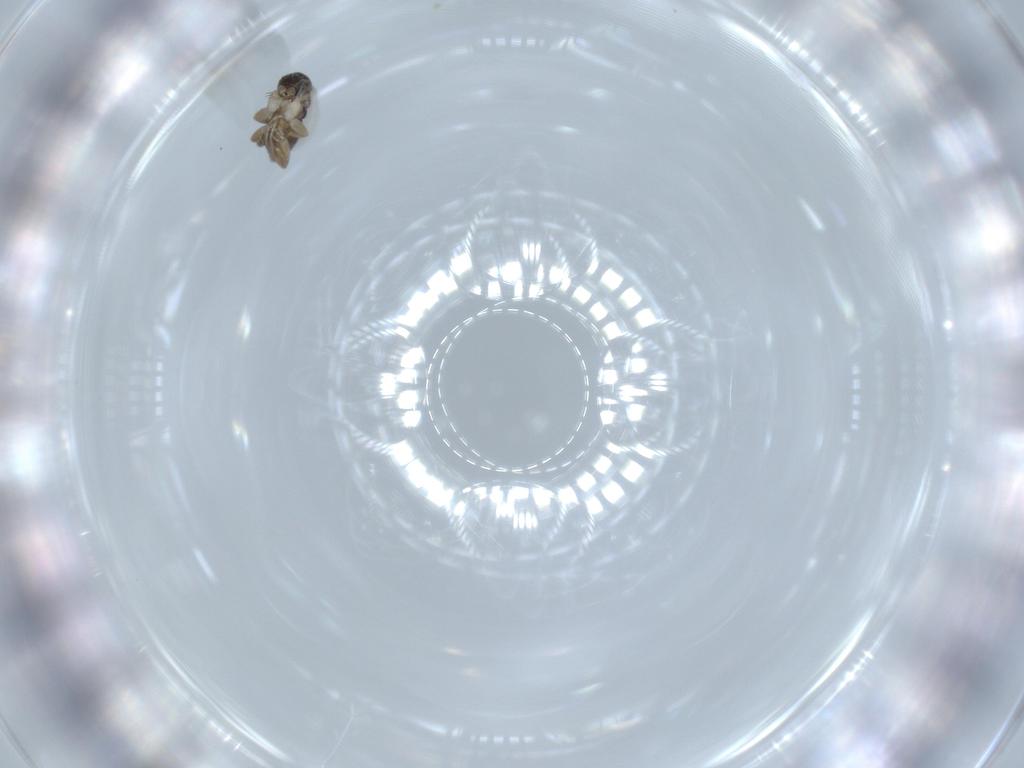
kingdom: Animalia
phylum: Arthropoda
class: Insecta
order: Diptera
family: Phoridae
